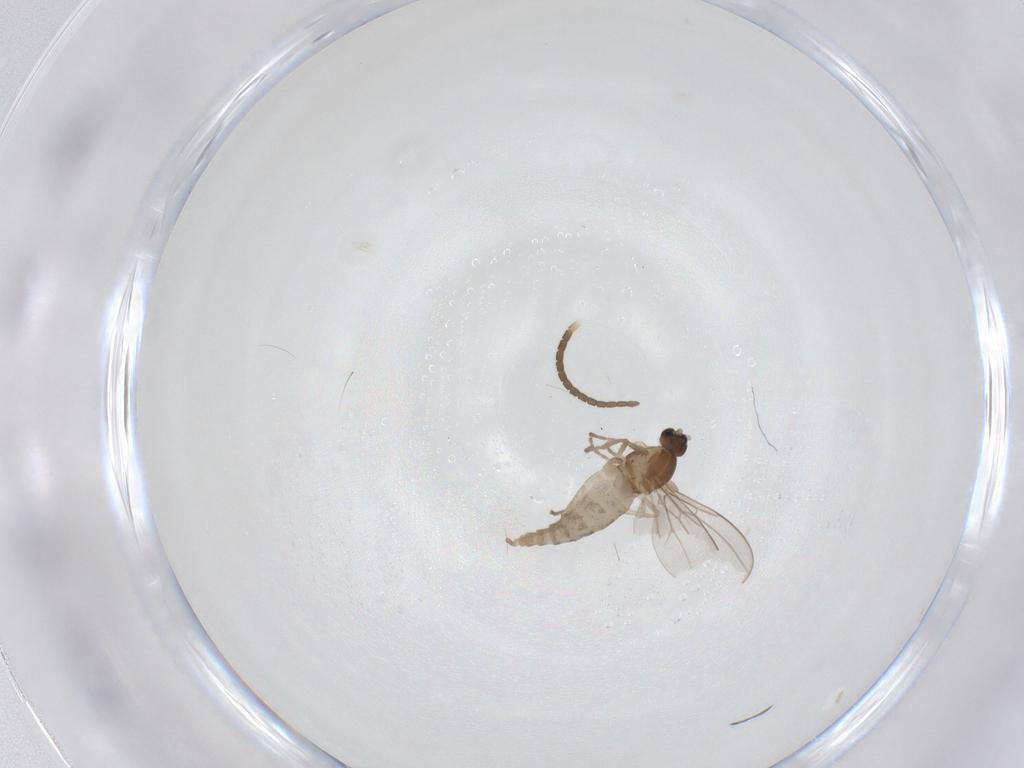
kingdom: Animalia
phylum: Arthropoda
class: Insecta
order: Diptera
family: Cecidomyiidae
